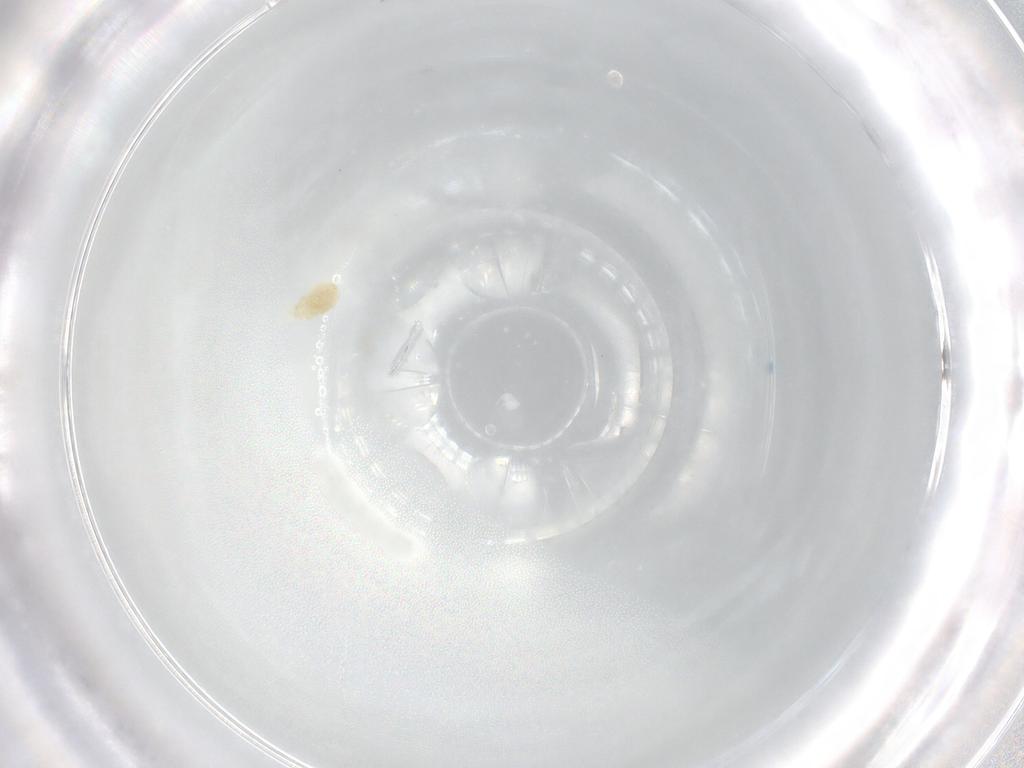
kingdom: Animalia
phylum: Arthropoda
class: Arachnida
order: Trombidiformes
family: Eupodidae
